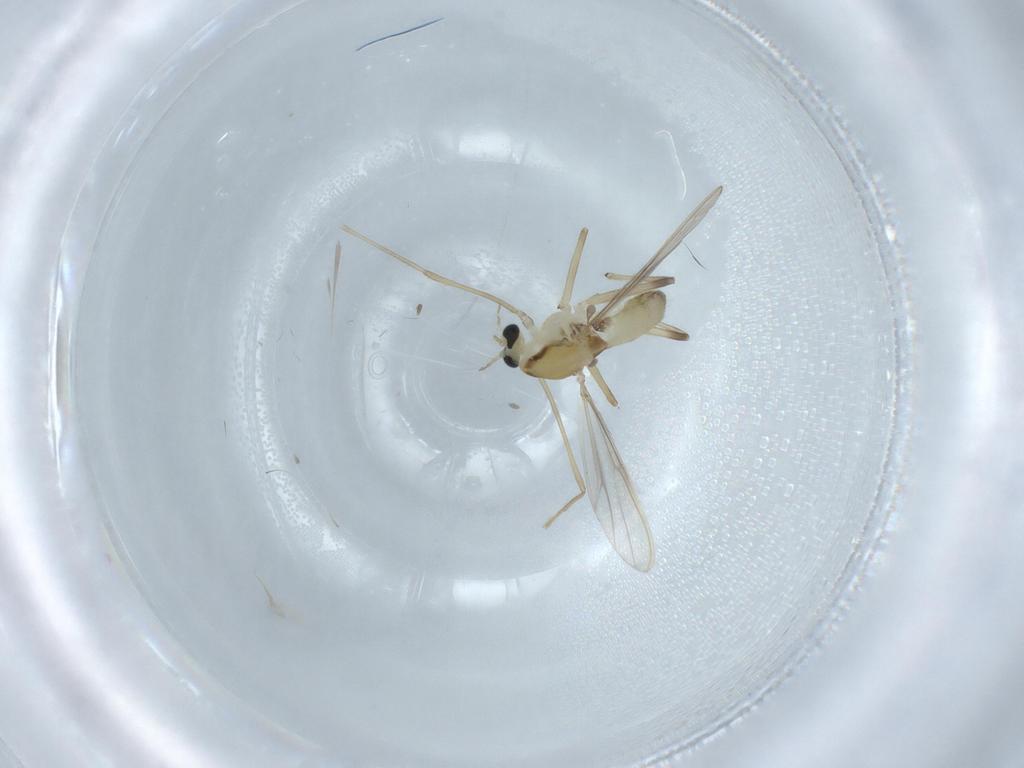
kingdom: Animalia
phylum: Arthropoda
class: Insecta
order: Diptera
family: Chironomidae
